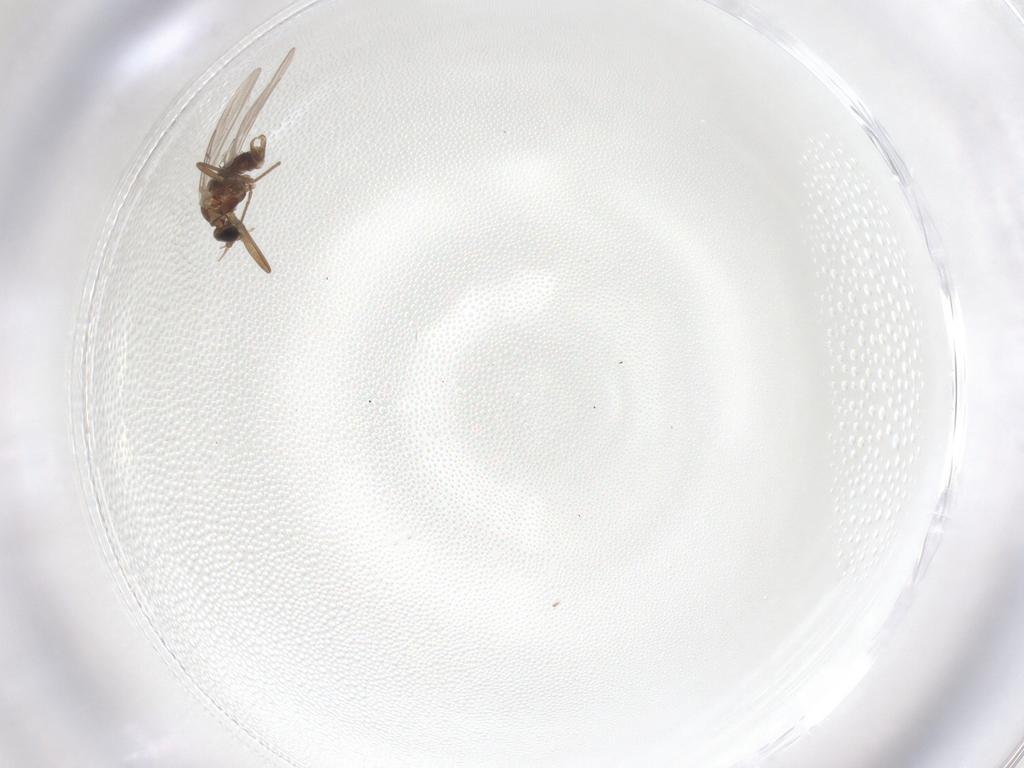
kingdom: Animalia
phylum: Arthropoda
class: Insecta
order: Diptera
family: Cecidomyiidae
